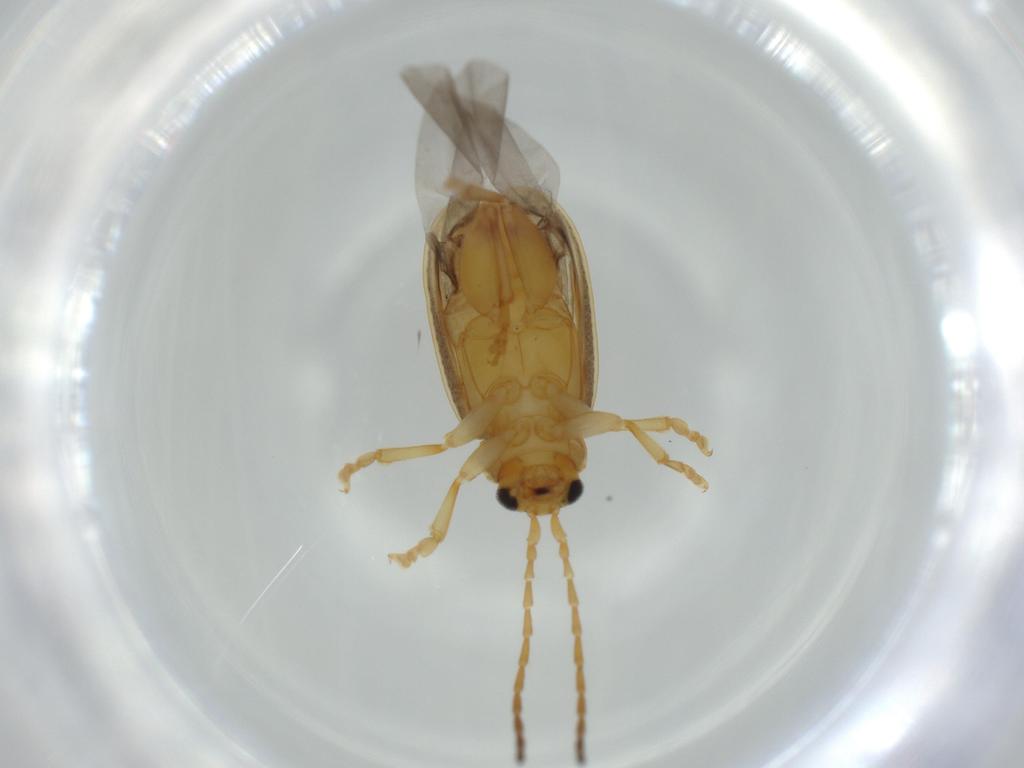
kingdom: Animalia
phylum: Arthropoda
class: Insecta
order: Coleoptera
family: Chrysomelidae
